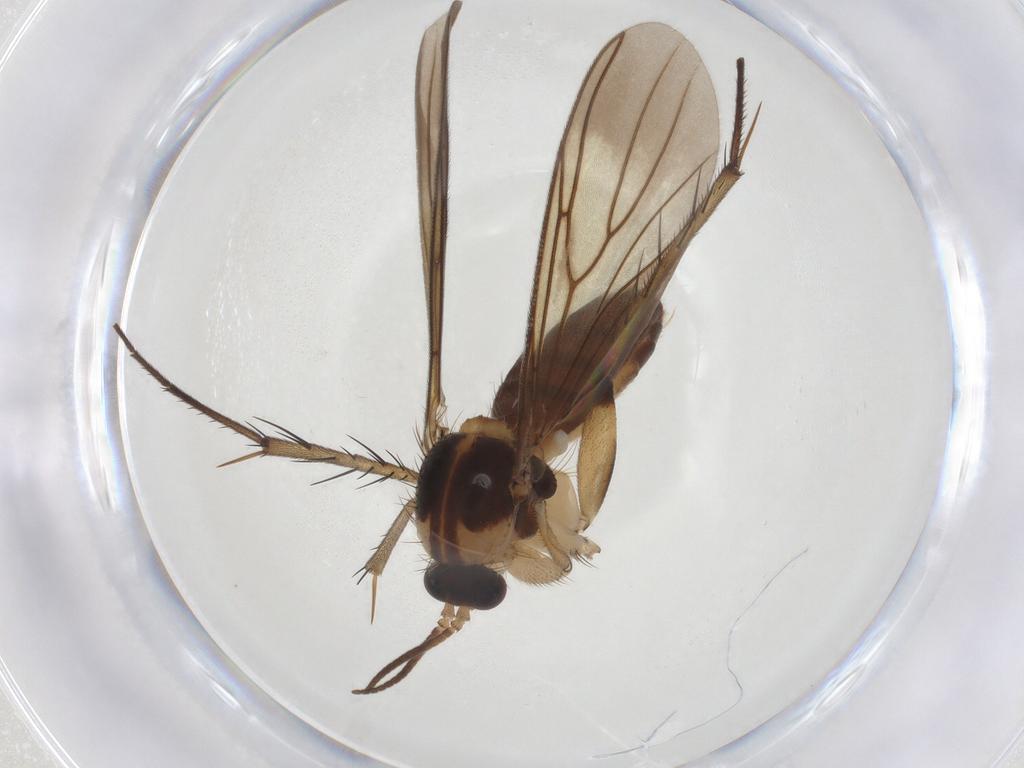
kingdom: Animalia
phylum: Arthropoda
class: Insecta
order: Diptera
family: Mycetophilidae
